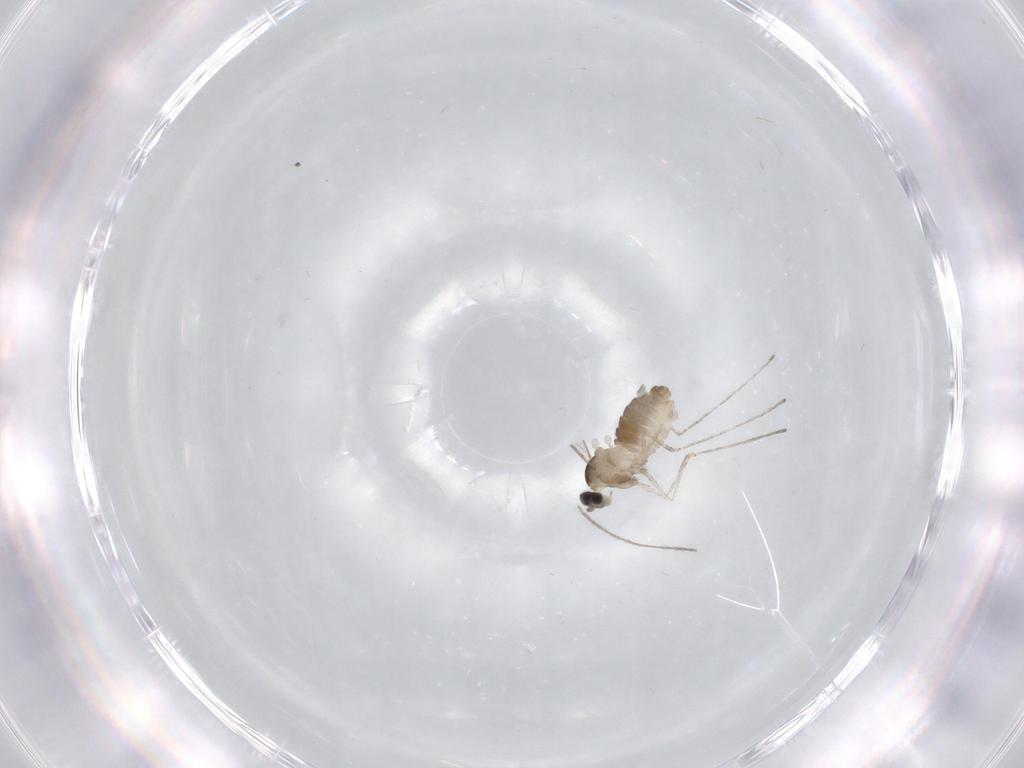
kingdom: Animalia
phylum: Arthropoda
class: Insecta
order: Diptera
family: Cecidomyiidae
